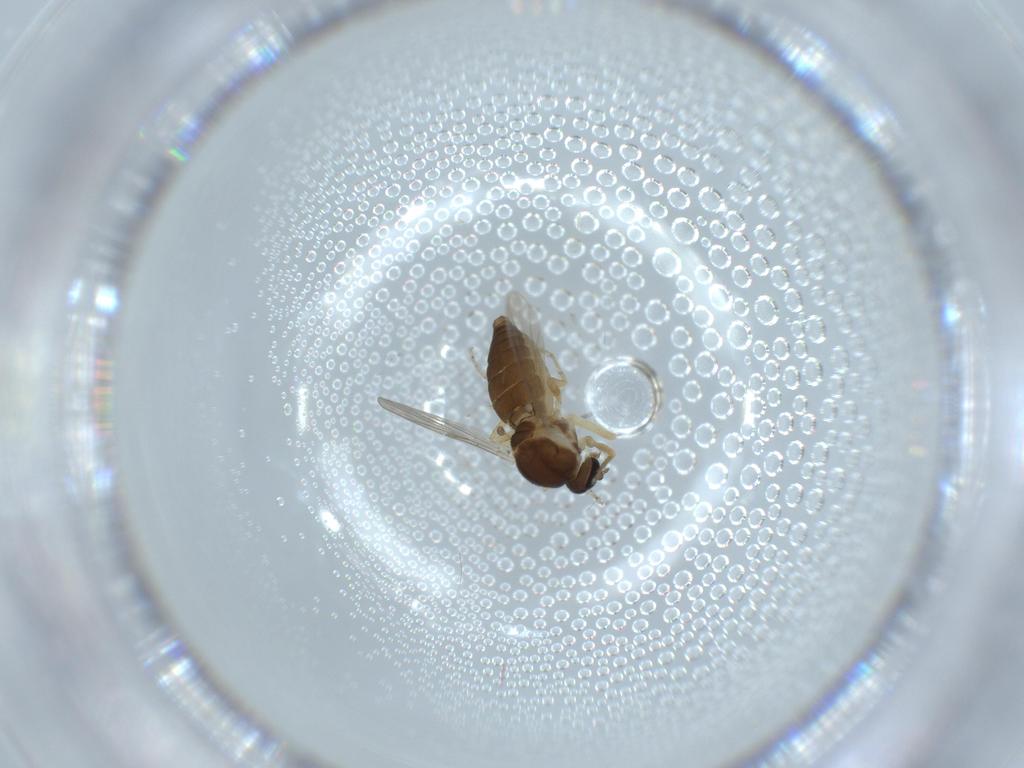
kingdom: Animalia
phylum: Arthropoda
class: Insecta
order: Diptera
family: Ceratopogonidae
